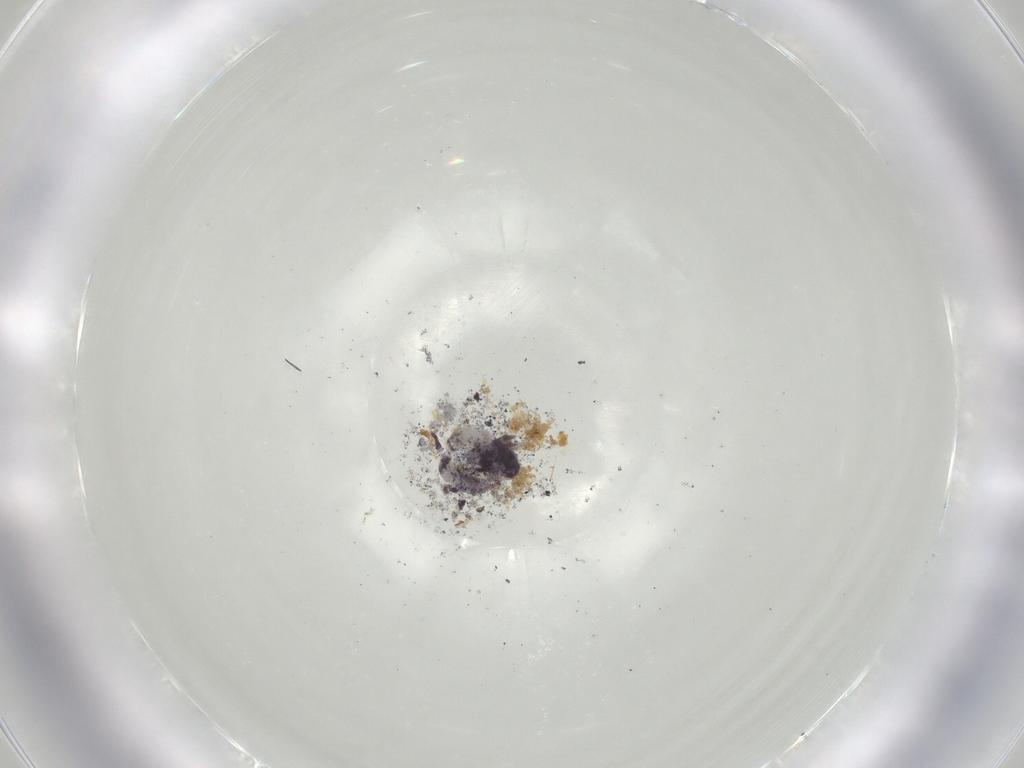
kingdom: Animalia
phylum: Arthropoda
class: Collembola
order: Entomobryomorpha
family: Isotomidae
